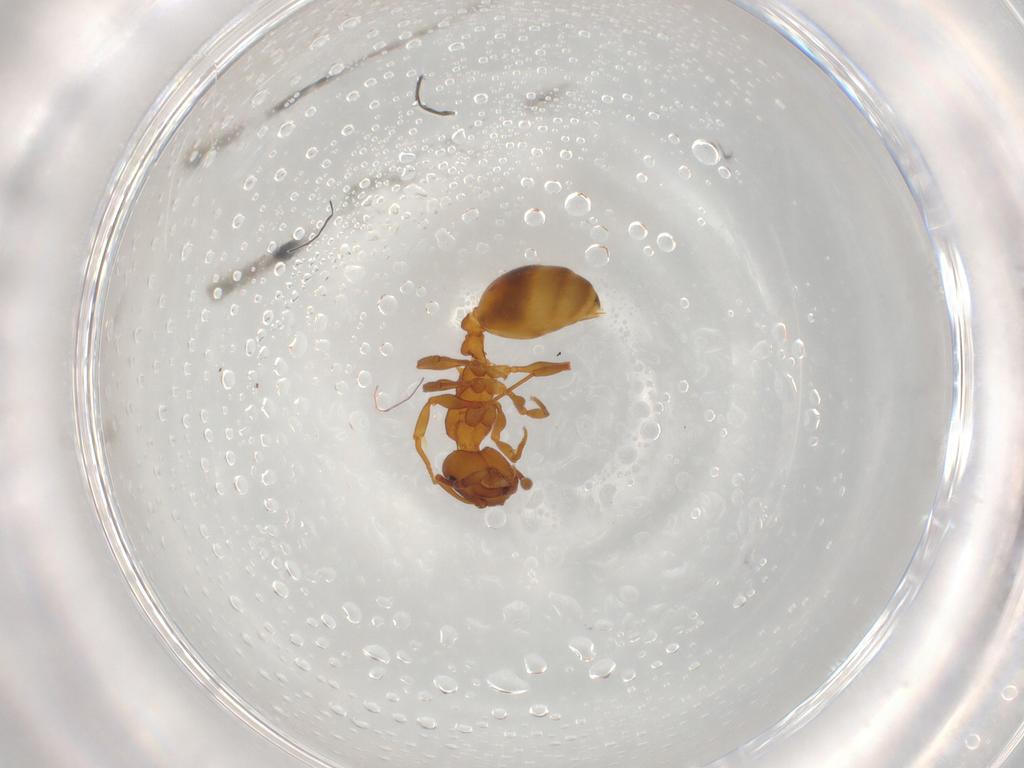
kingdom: Animalia
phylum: Arthropoda
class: Insecta
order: Hymenoptera
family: Formicidae
